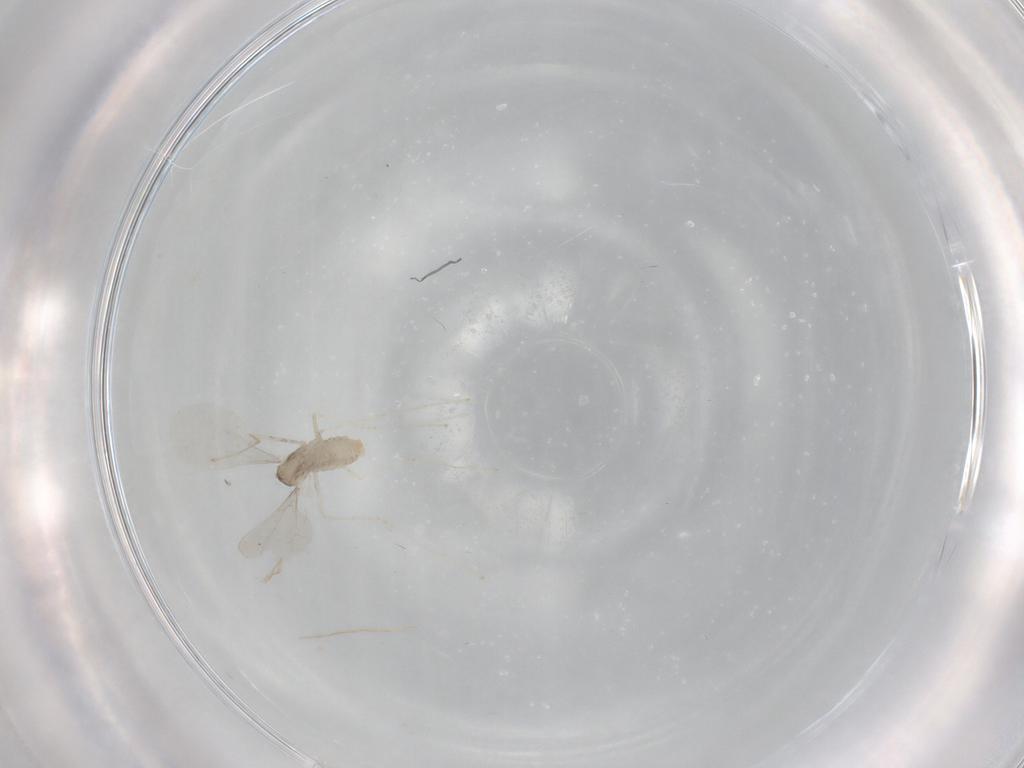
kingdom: Animalia
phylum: Arthropoda
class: Insecta
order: Diptera
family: Cecidomyiidae
